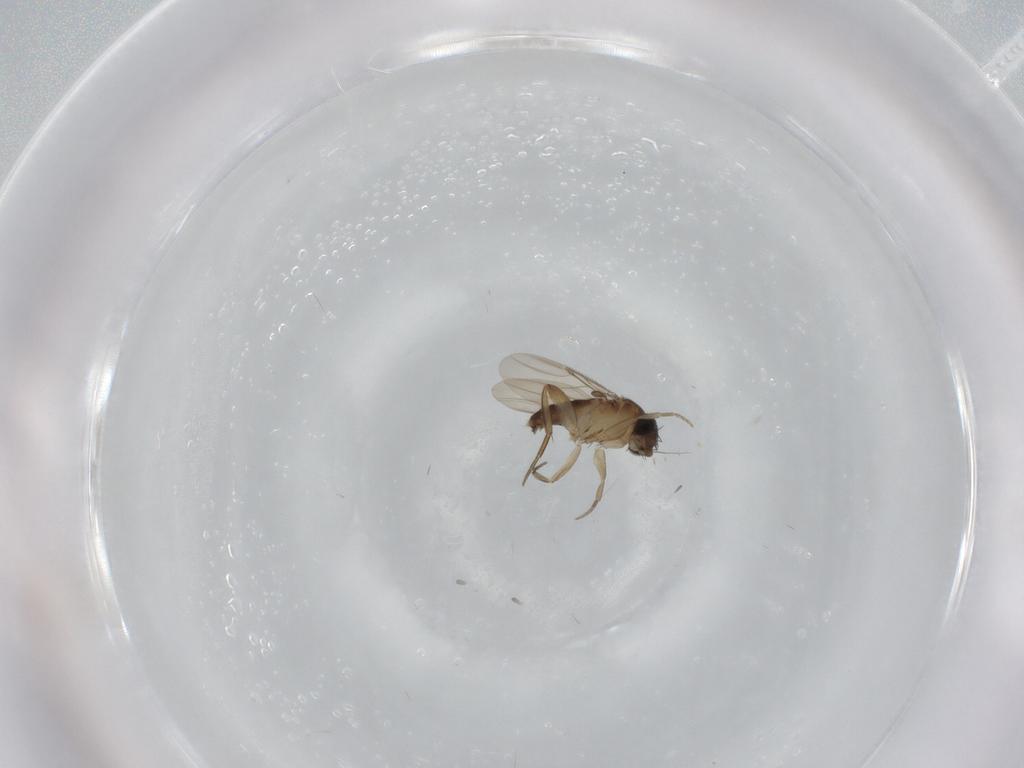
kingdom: Animalia
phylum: Arthropoda
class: Insecta
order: Diptera
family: Phoridae
